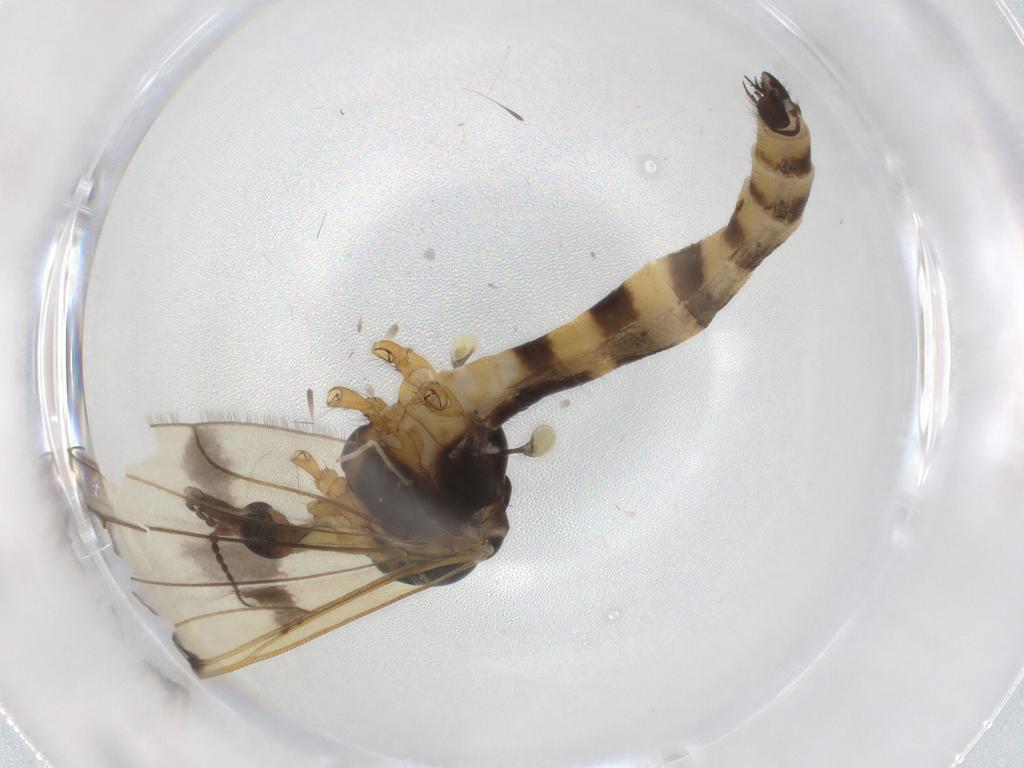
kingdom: Animalia
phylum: Arthropoda
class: Insecta
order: Diptera
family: Limoniidae
